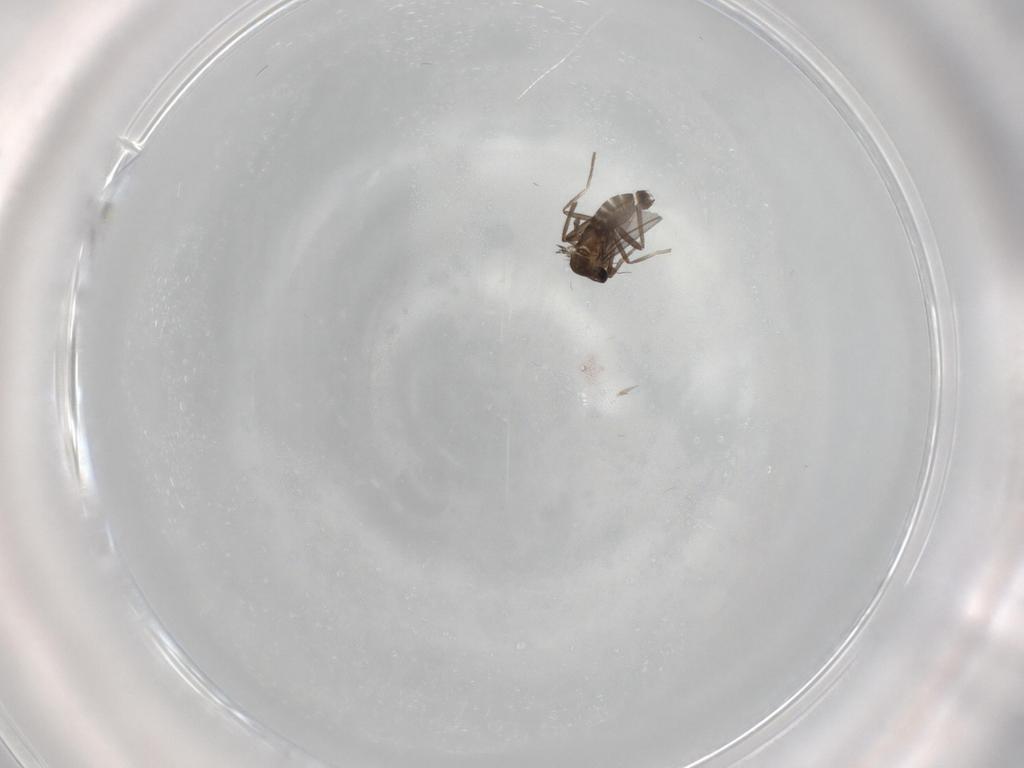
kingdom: Animalia
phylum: Arthropoda
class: Insecta
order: Diptera
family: Phoridae
